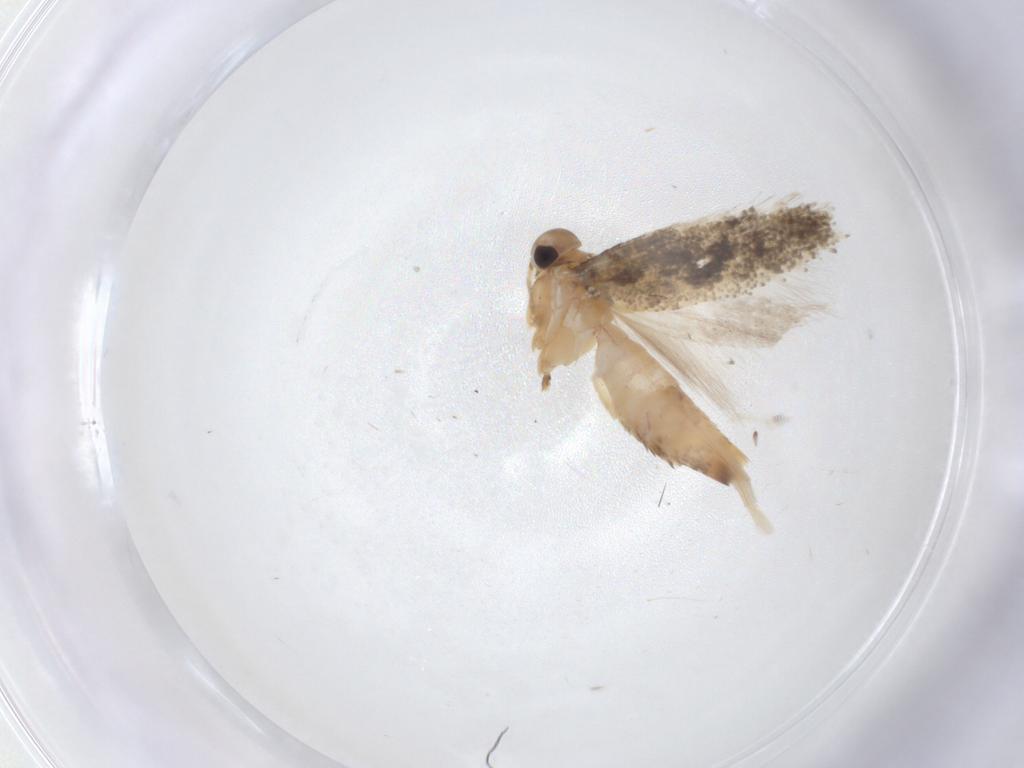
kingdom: Animalia
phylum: Arthropoda
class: Insecta
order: Lepidoptera
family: Gelechiidae
